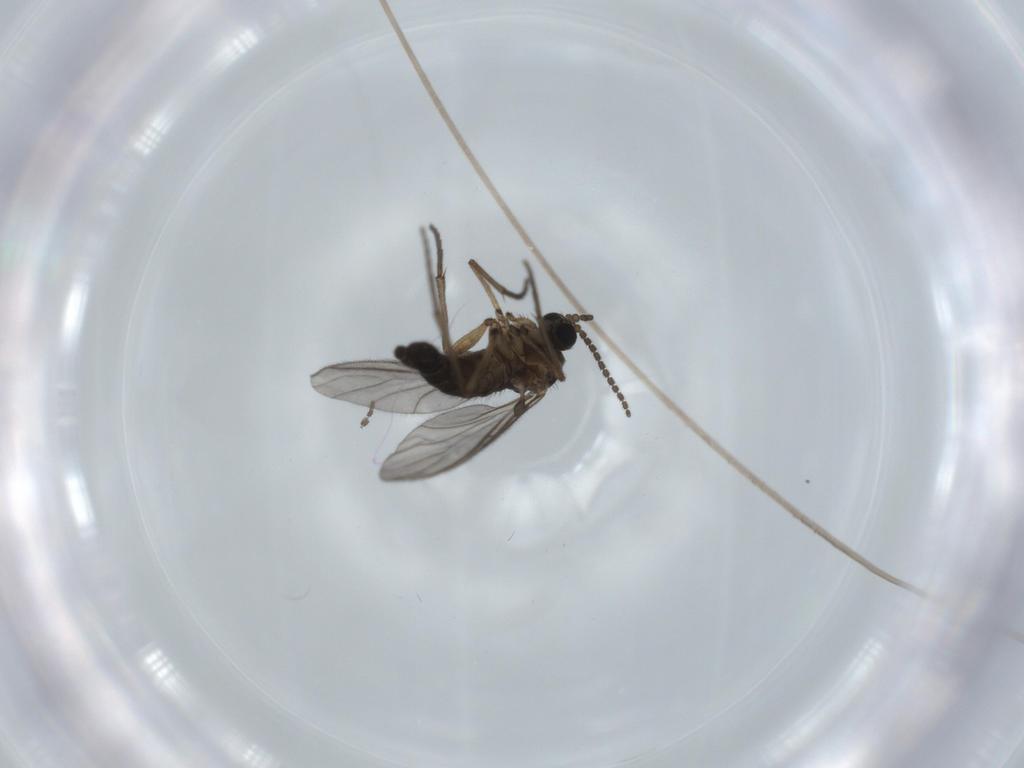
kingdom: Animalia
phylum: Arthropoda
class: Insecta
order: Diptera
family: Sciaridae
